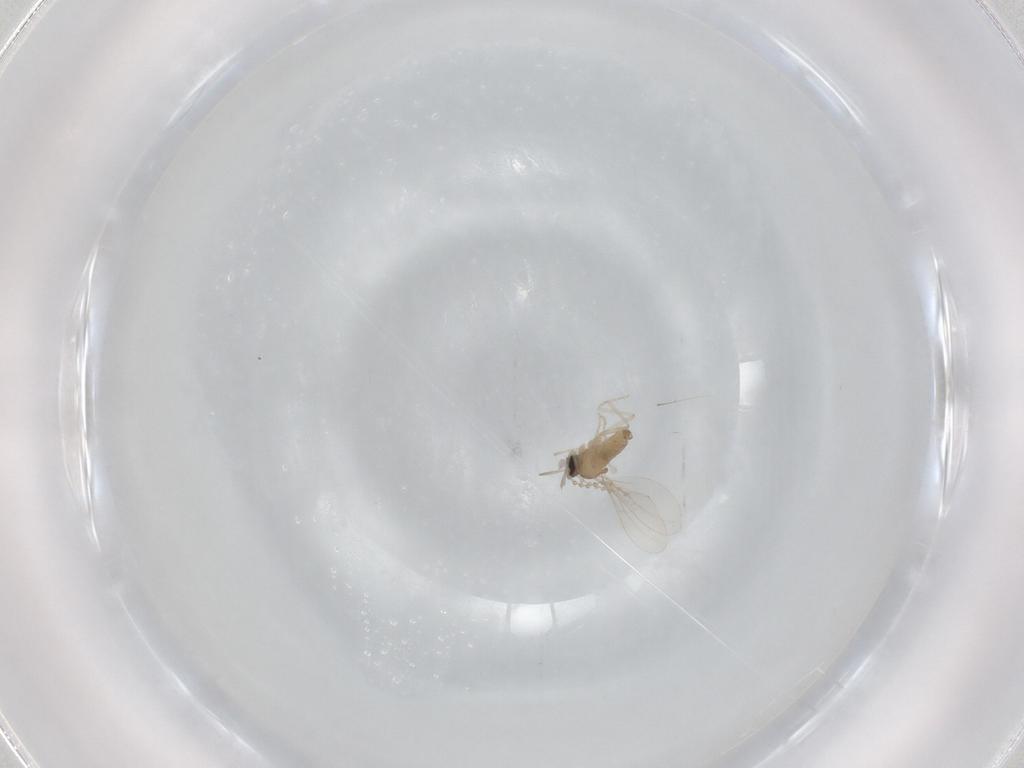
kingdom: Animalia
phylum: Arthropoda
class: Insecta
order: Diptera
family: Cecidomyiidae
